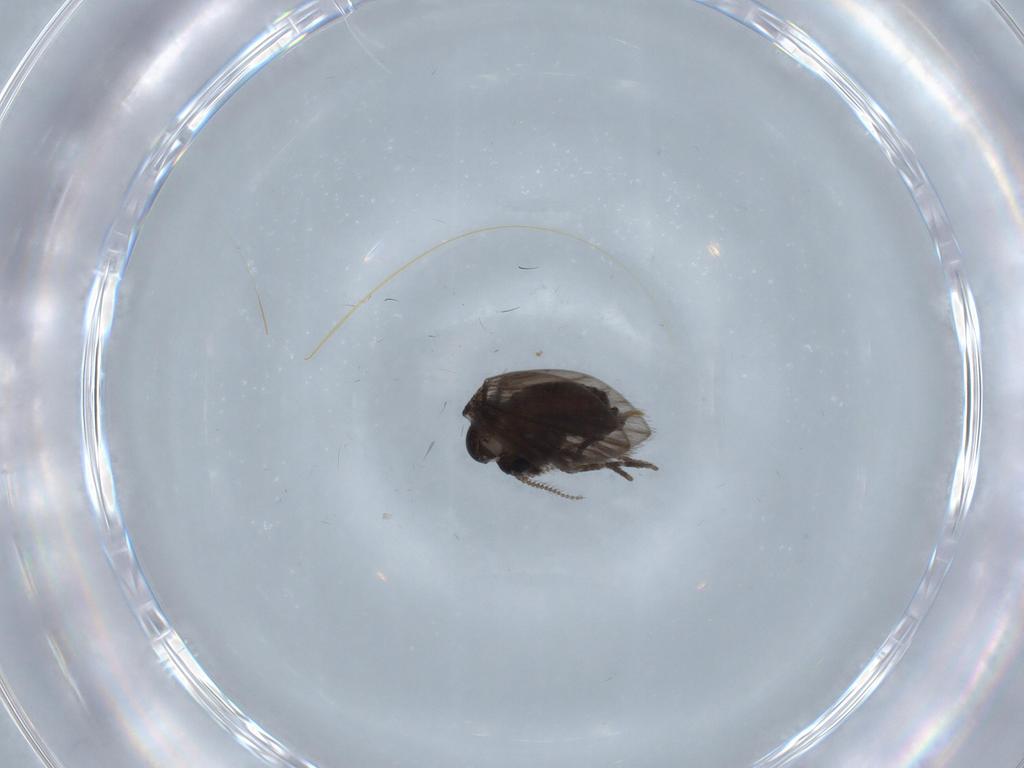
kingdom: Animalia
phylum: Arthropoda
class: Insecta
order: Diptera
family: Psychodidae
